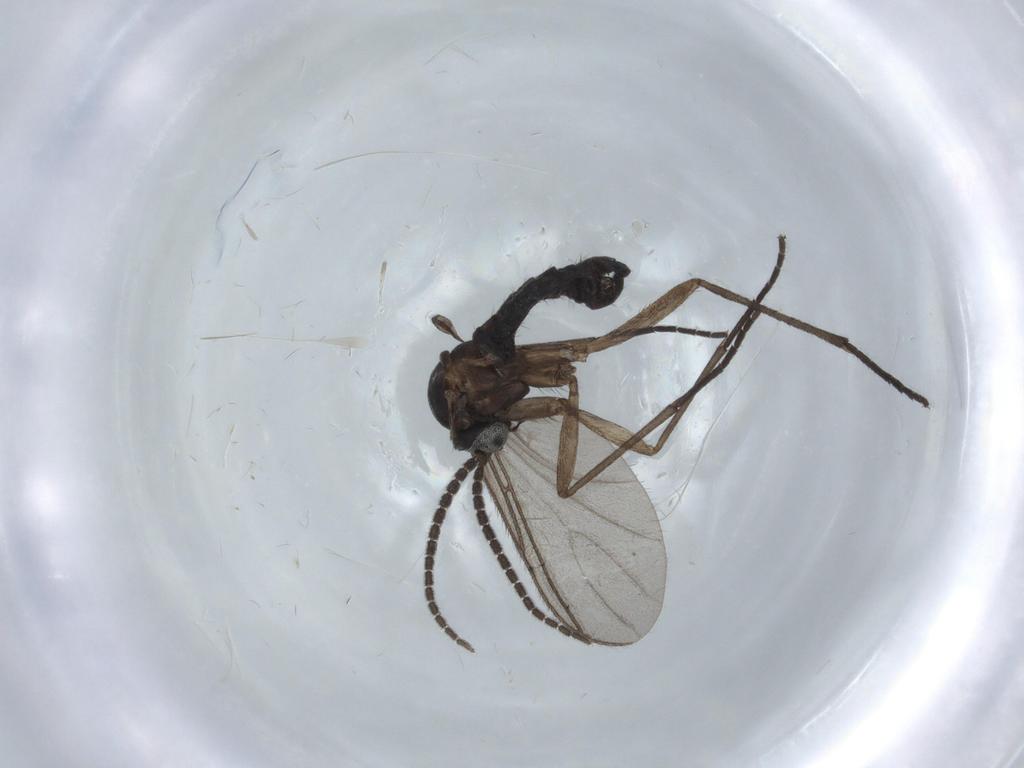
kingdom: Animalia
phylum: Arthropoda
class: Insecta
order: Diptera
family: Sciaridae
